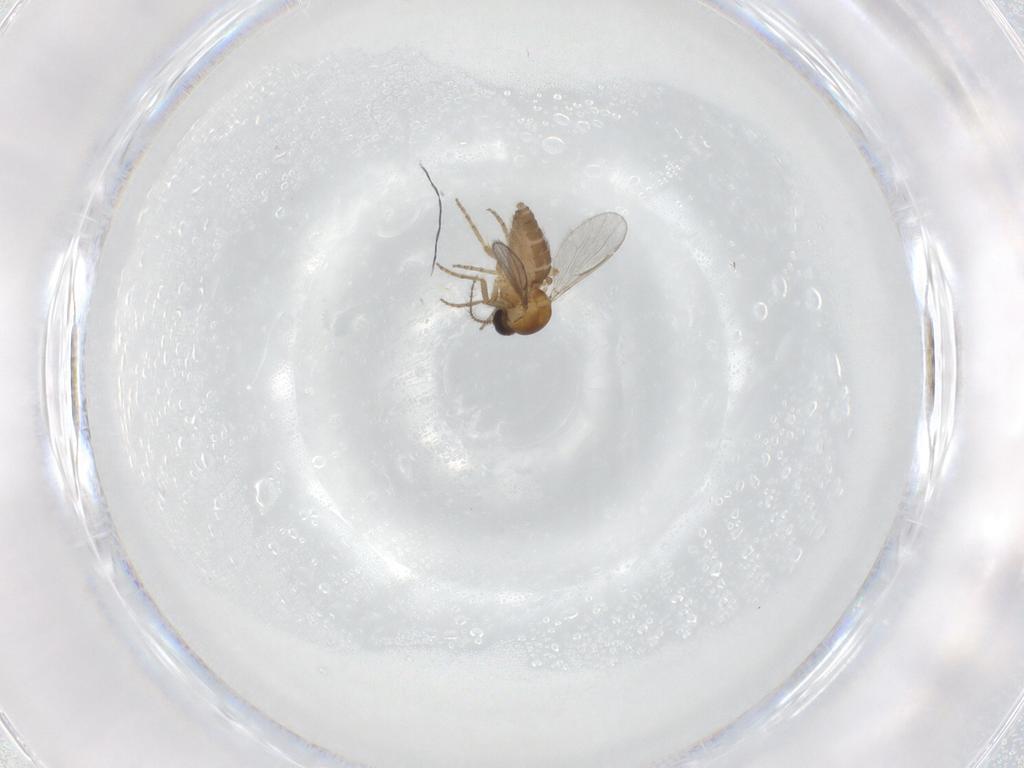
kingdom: Animalia
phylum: Arthropoda
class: Insecta
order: Diptera
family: Ceratopogonidae
